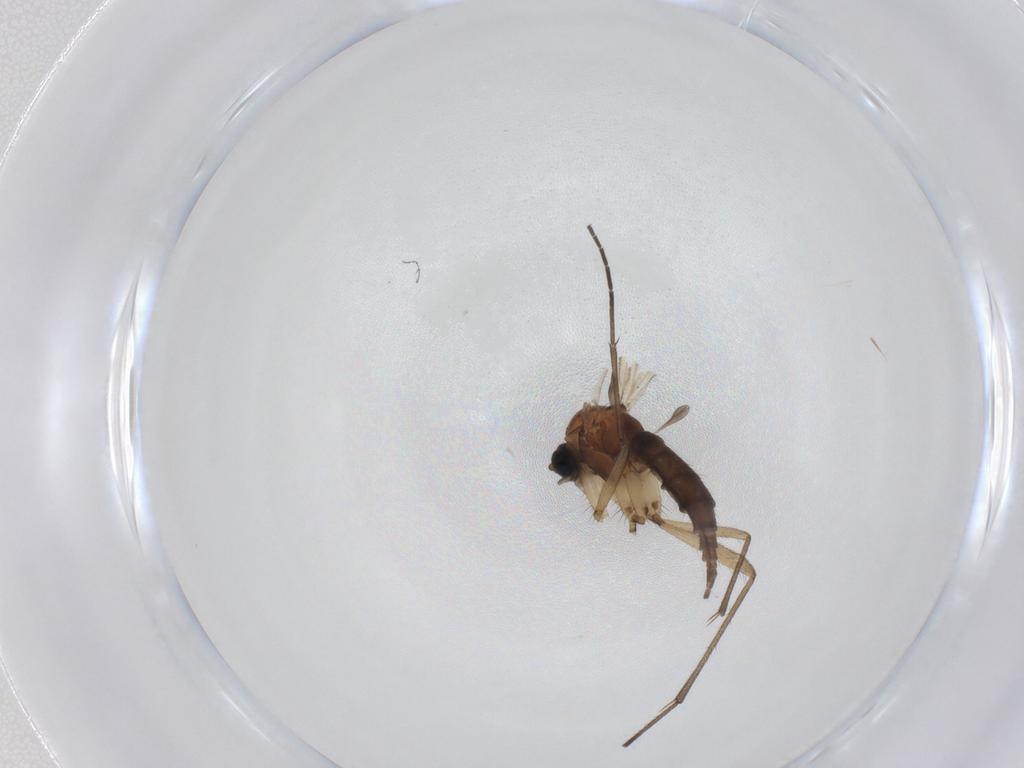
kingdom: Animalia
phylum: Arthropoda
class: Insecta
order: Diptera
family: Sciaridae
